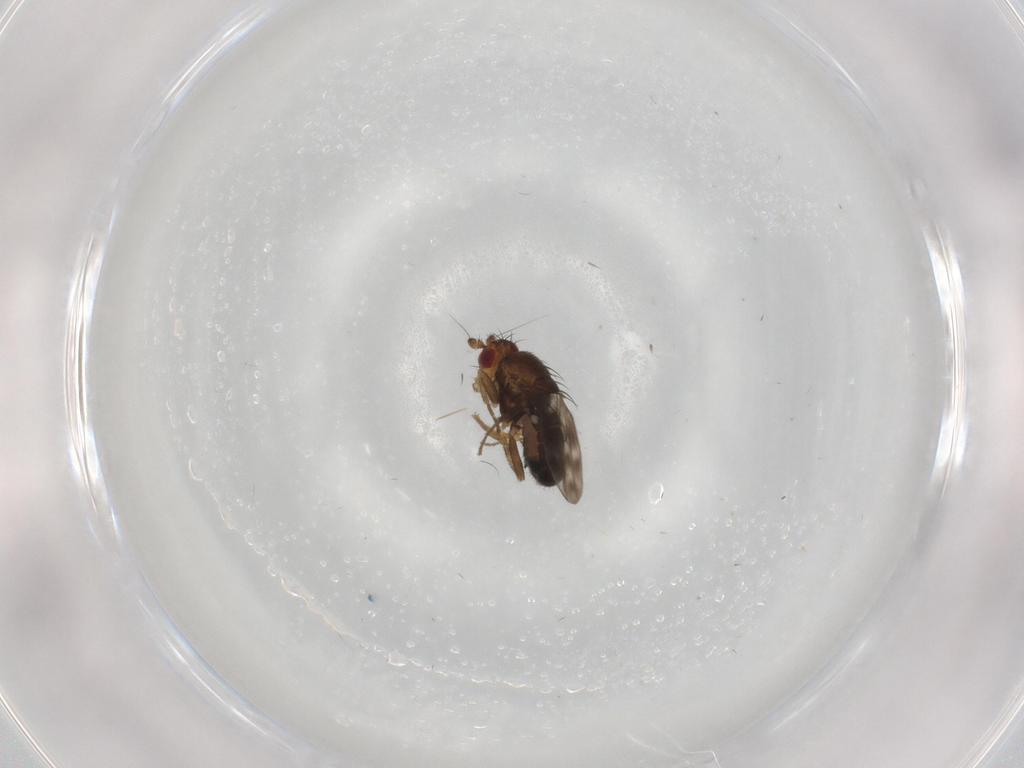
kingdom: Animalia
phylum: Arthropoda
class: Insecta
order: Diptera
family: Sphaeroceridae
